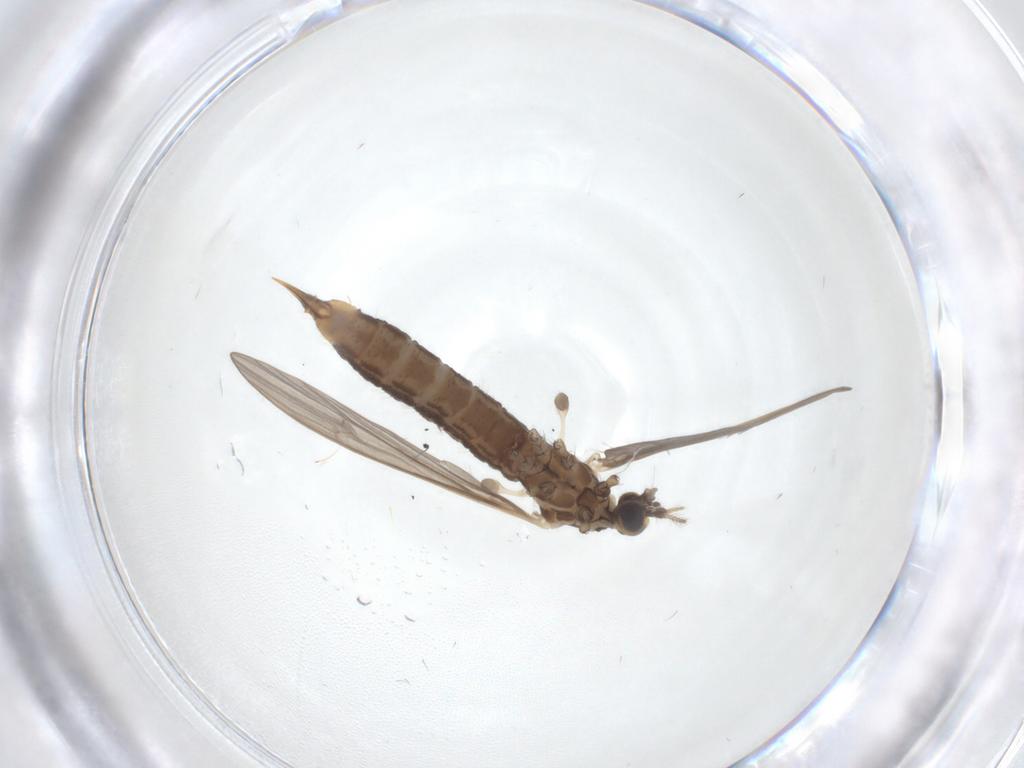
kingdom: Animalia
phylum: Arthropoda
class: Insecta
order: Diptera
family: Limoniidae
